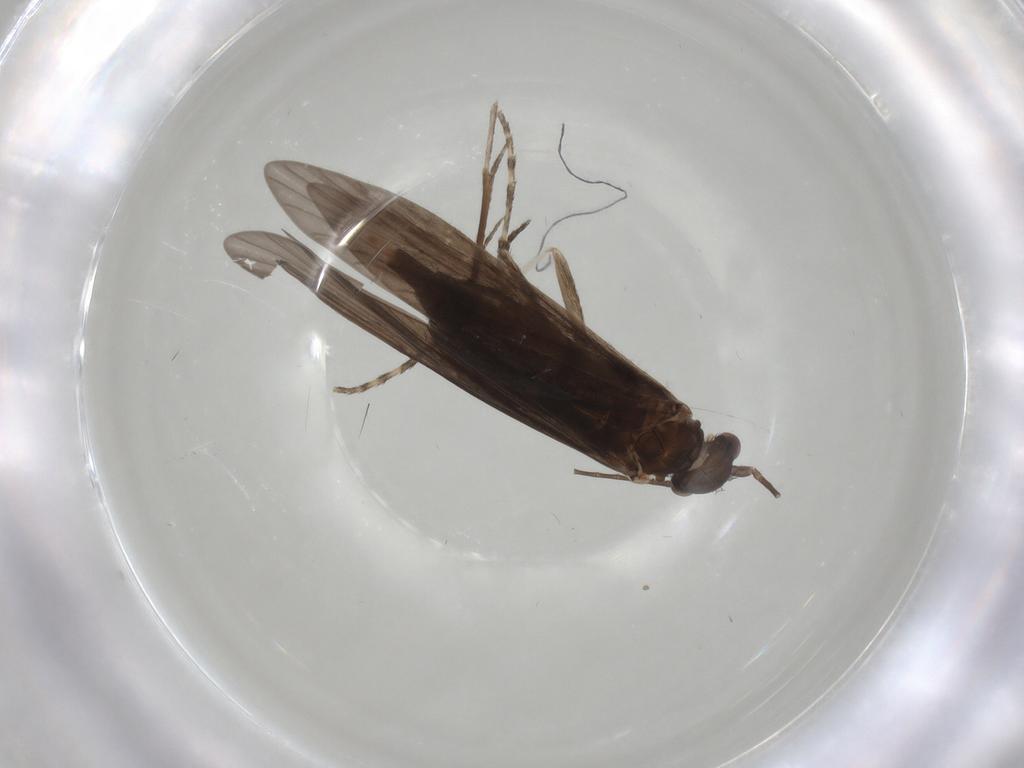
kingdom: Animalia
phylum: Arthropoda
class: Insecta
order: Trichoptera
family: Xiphocentronidae
